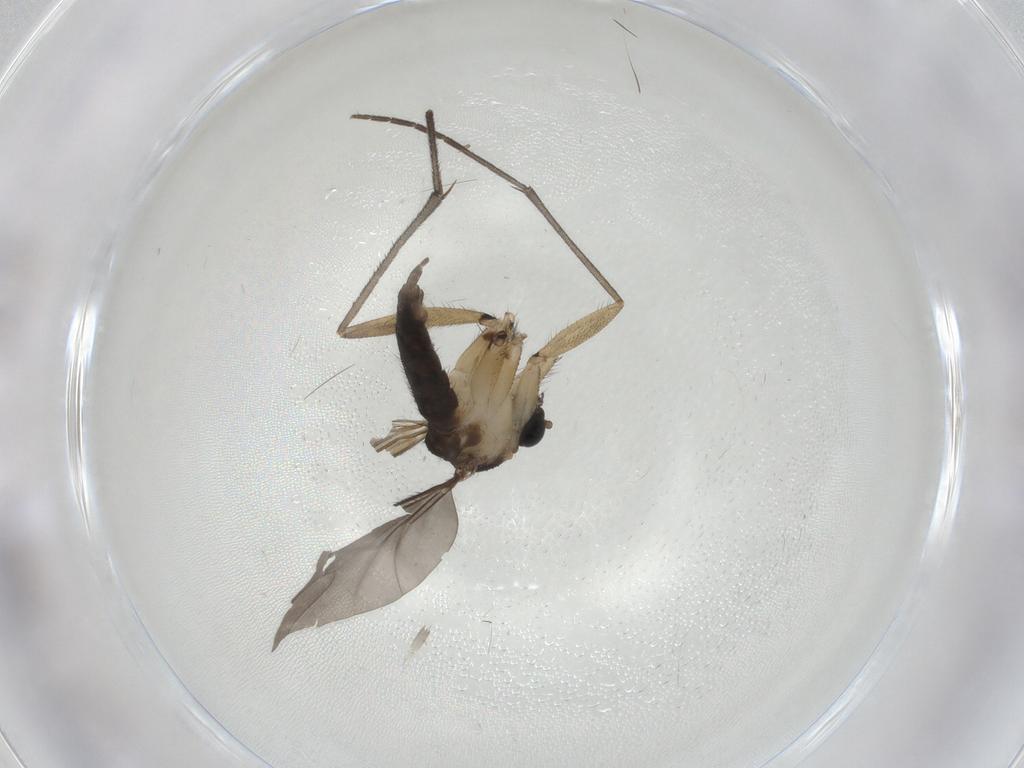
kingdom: Animalia
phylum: Arthropoda
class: Insecta
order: Diptera
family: Sciaridae
